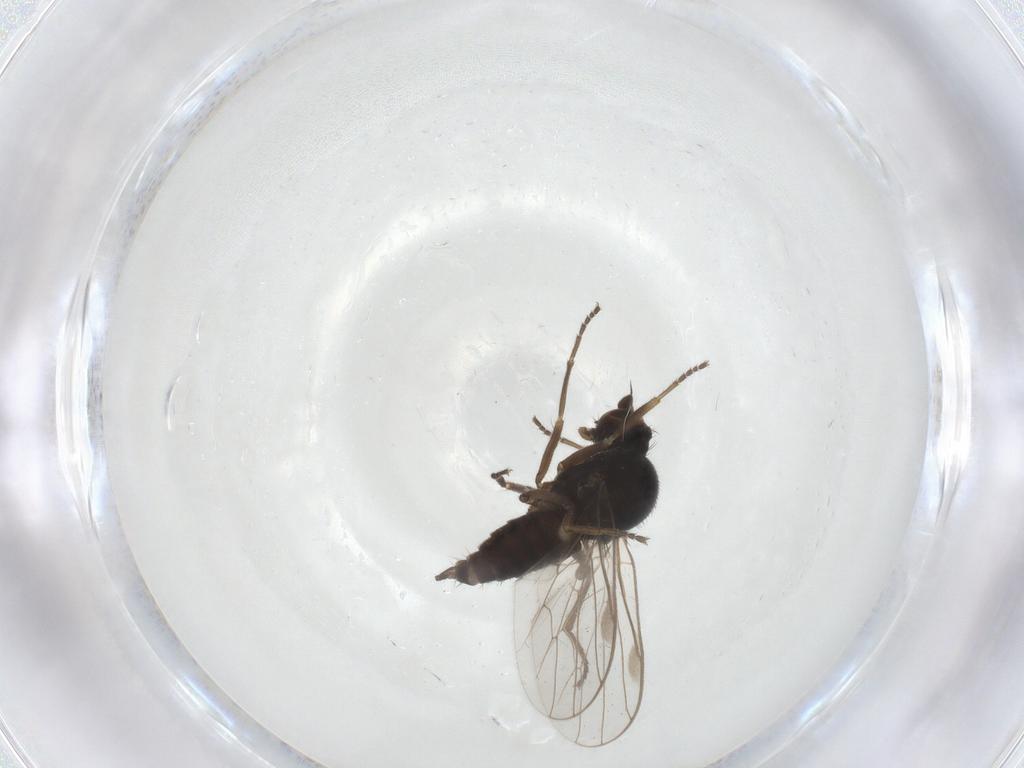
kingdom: Animalia
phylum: Arthropoda
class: Insecta
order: Diptera
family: Hybotidae
